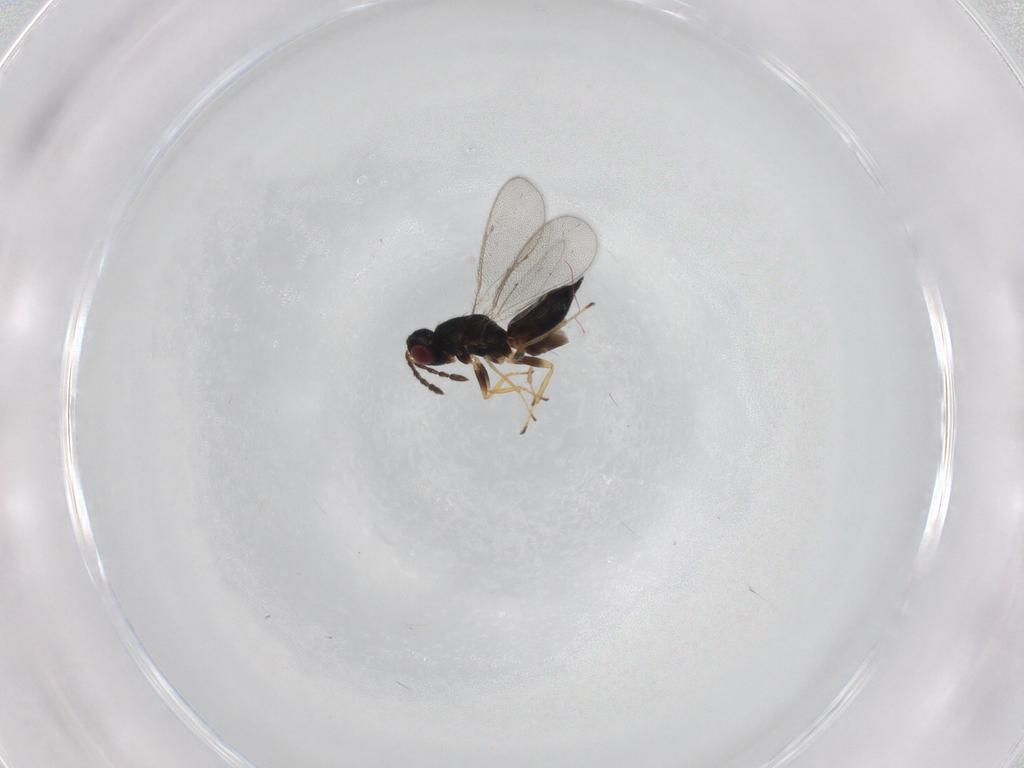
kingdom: Animalia
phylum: Arthropoda
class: Insecta
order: Hymenoptera
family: Eulophidae
